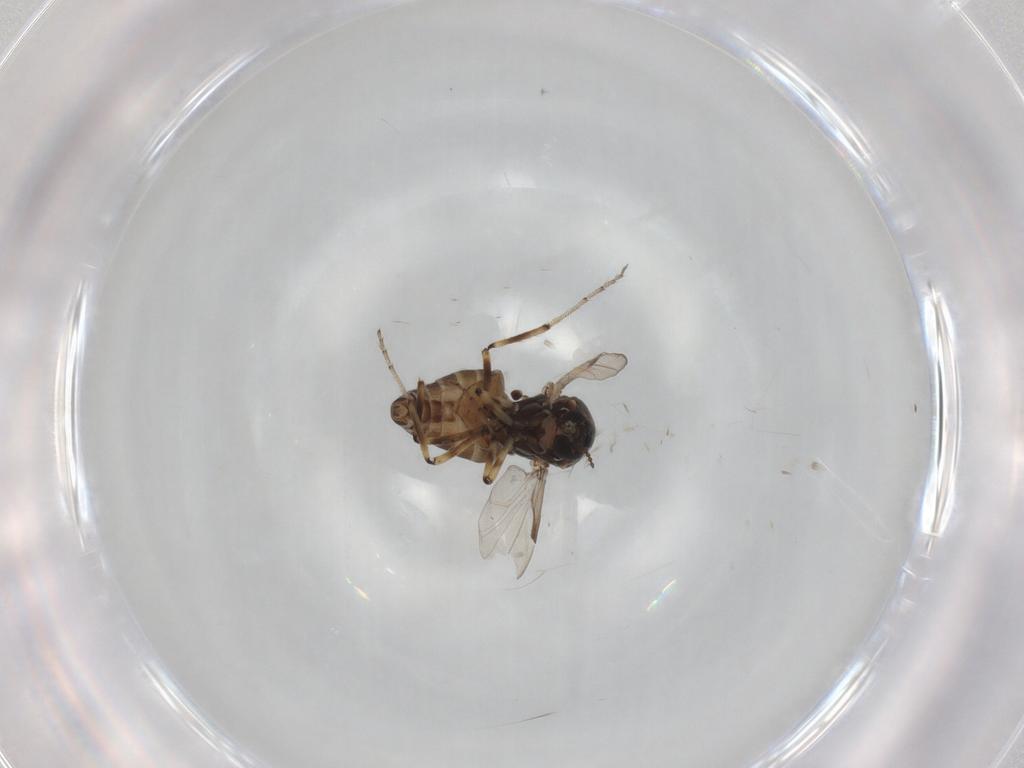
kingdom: Animalia
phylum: Arthropoda
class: Insecta
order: Diptera
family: Ceratopogonidae
